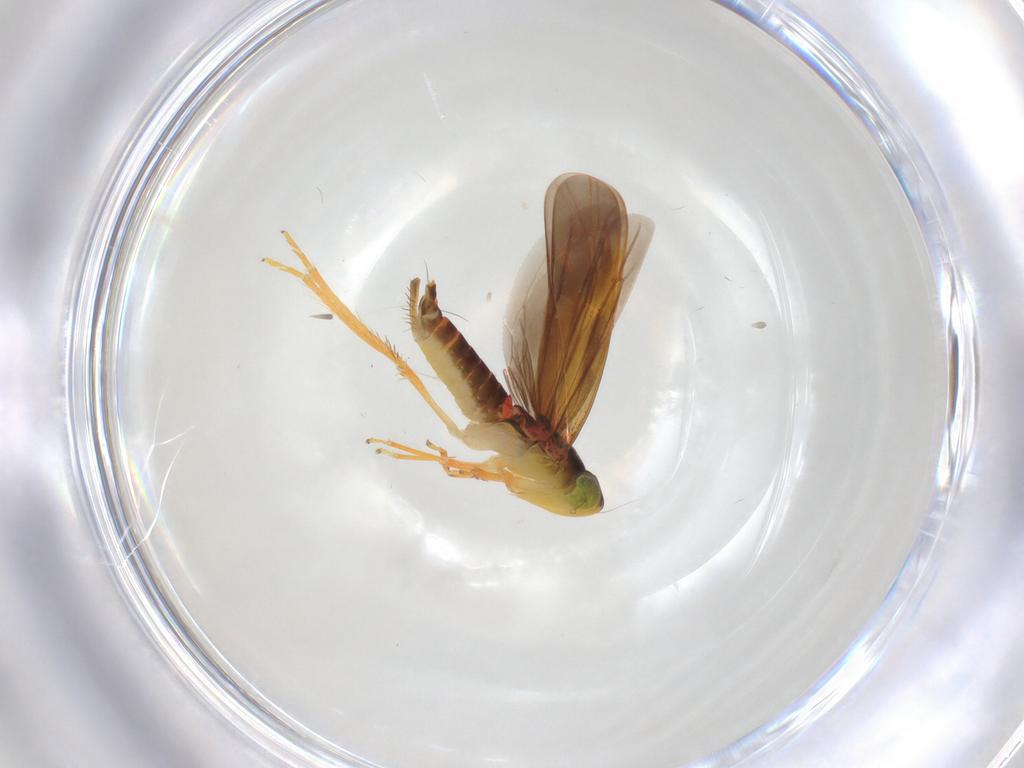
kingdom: Animalia
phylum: Arthropoda
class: Insecta
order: Hemiptera
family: Cicadellidae
